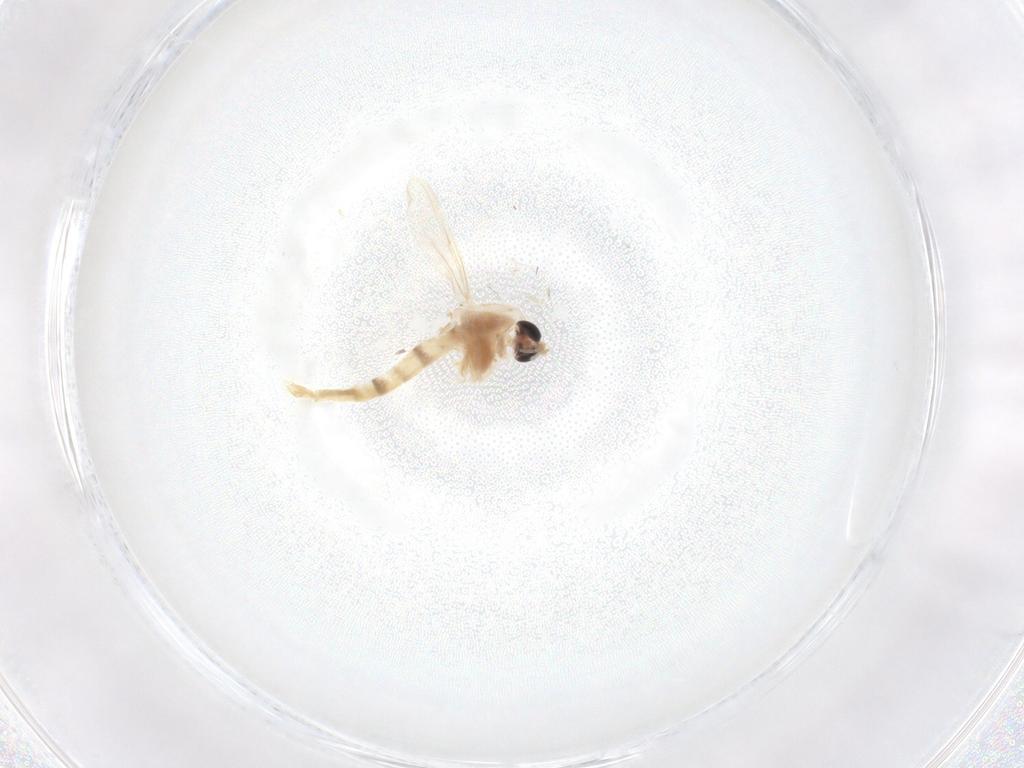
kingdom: Animalia
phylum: Arthropoda
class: Insecta
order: Diptera
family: Chironomidae
